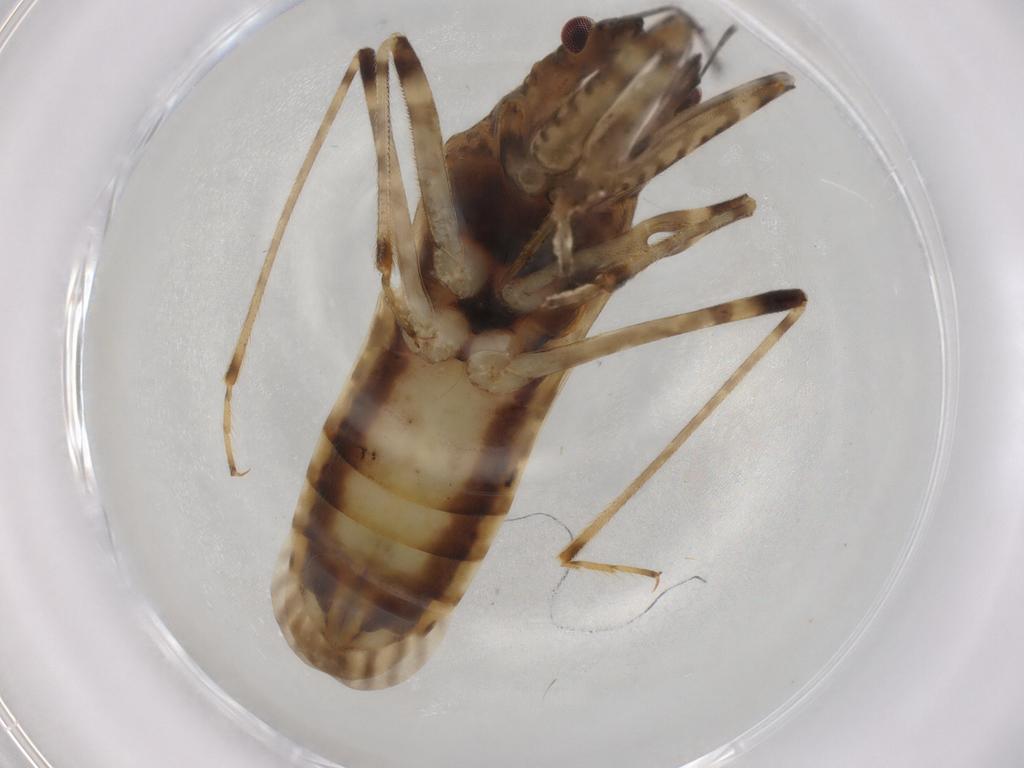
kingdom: Animalia
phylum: Arthropoda
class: Insecta
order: Hemiptera
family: Nabidae
